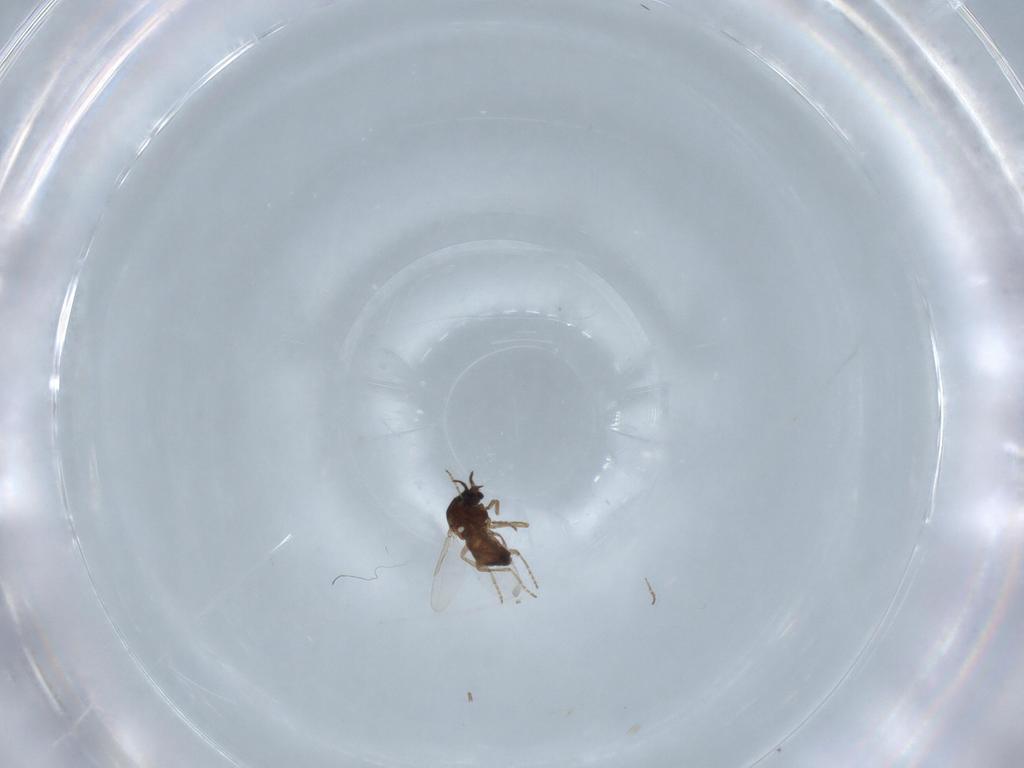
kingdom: Animalia
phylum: Arthropoda
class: Insecta
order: Diptera
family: Ceratopogonidae
